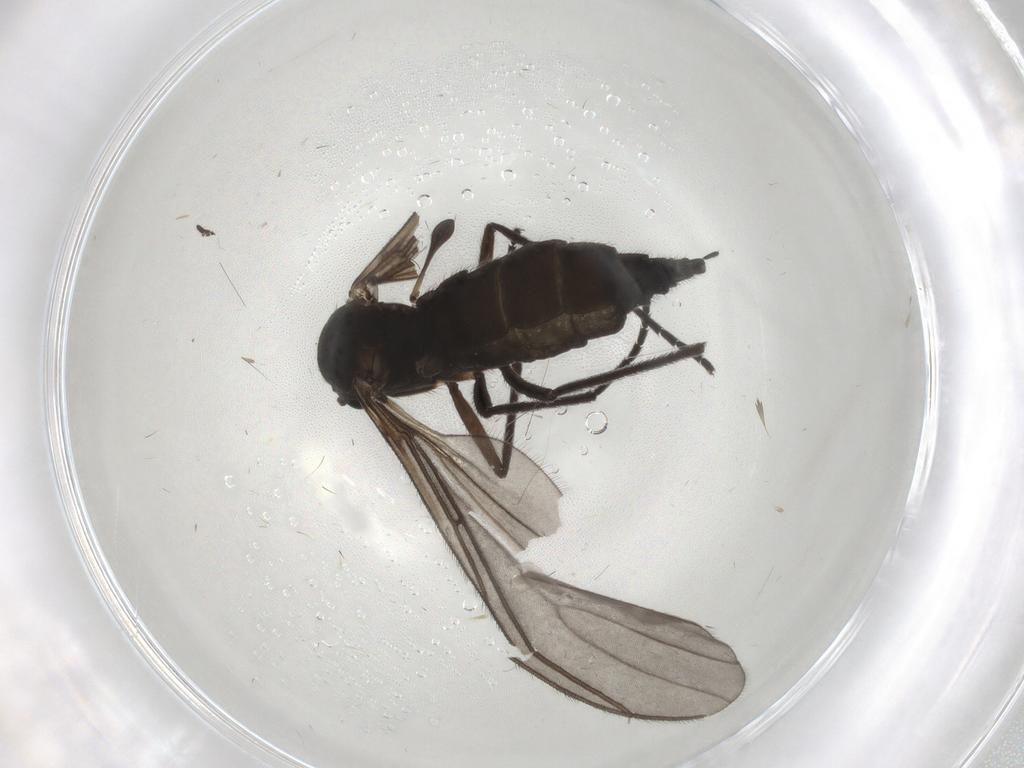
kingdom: Animalia
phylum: Arthropoda
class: Insecta
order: Diptera
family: Sciaridae
